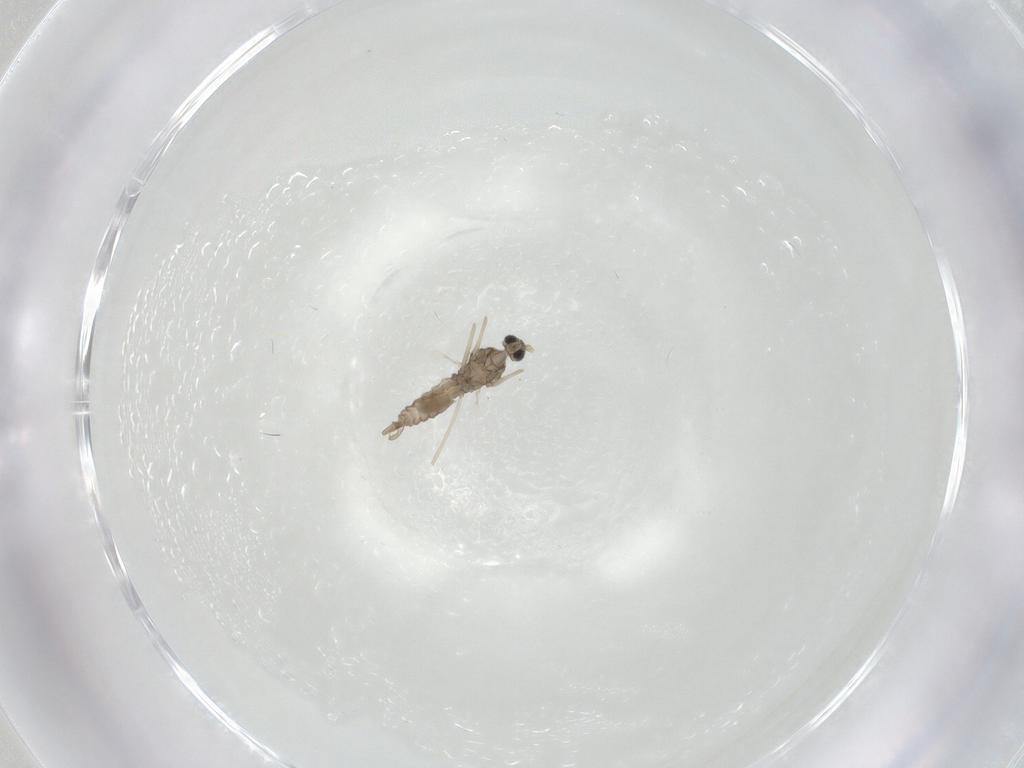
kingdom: Animalia
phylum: Arthropoda
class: Insecta
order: Diptera
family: Cecidomyiidae
